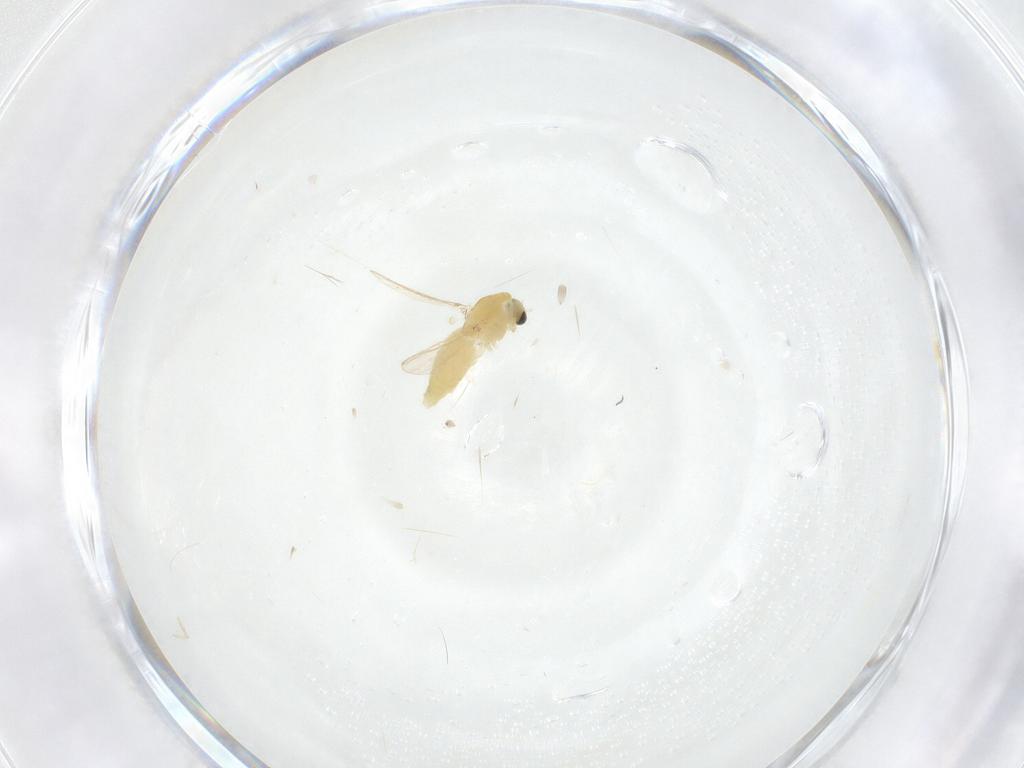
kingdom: Animalia
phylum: Arthropoda
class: Insecta
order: Diptera
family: Chironomidae
